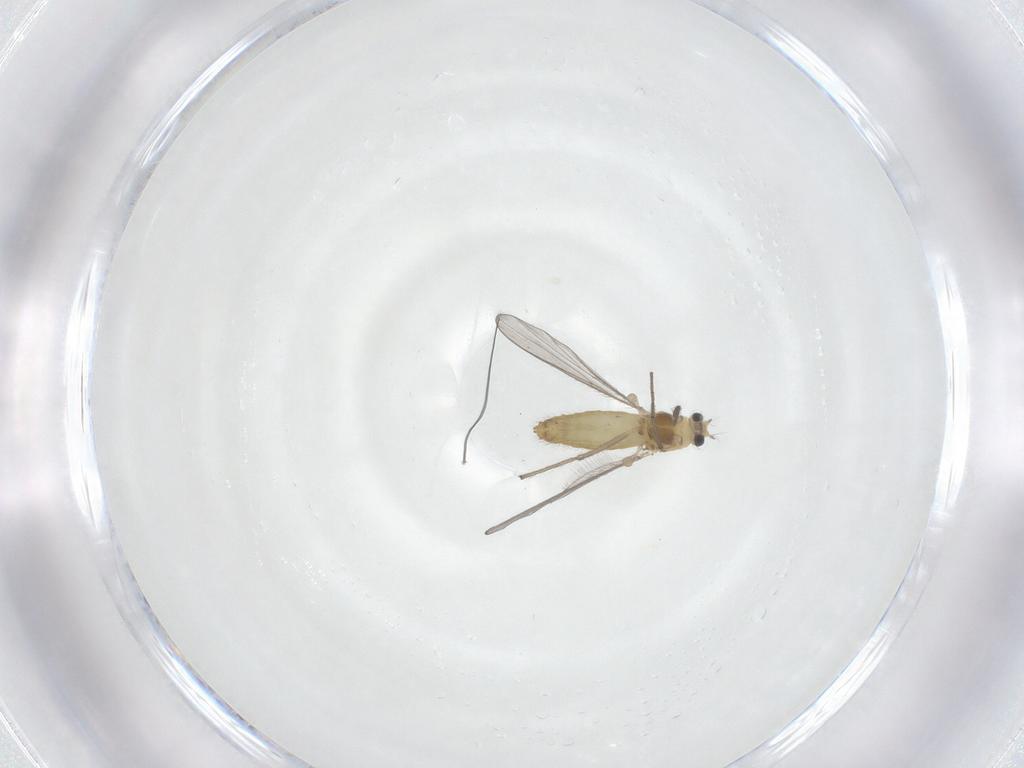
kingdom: Animalia
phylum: Arthropoda
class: Insecta
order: Diptera
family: Chironomidae
